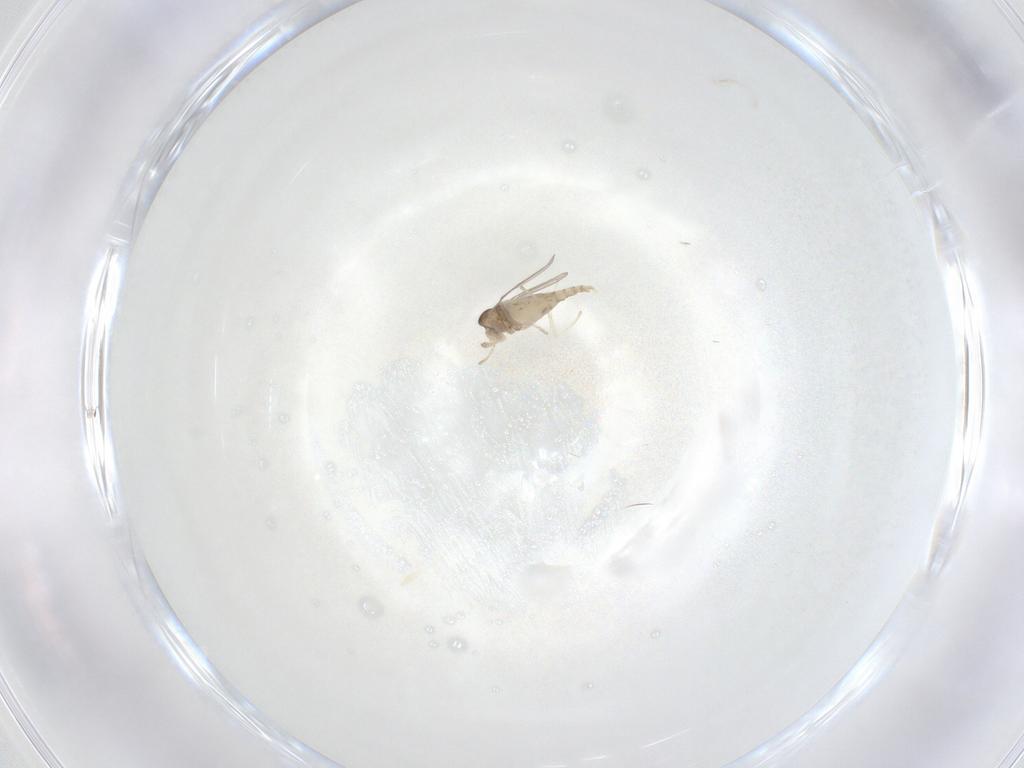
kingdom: Animalia
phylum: Arthropoda
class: Insecta
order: Diptera
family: Cecidomyiidae
